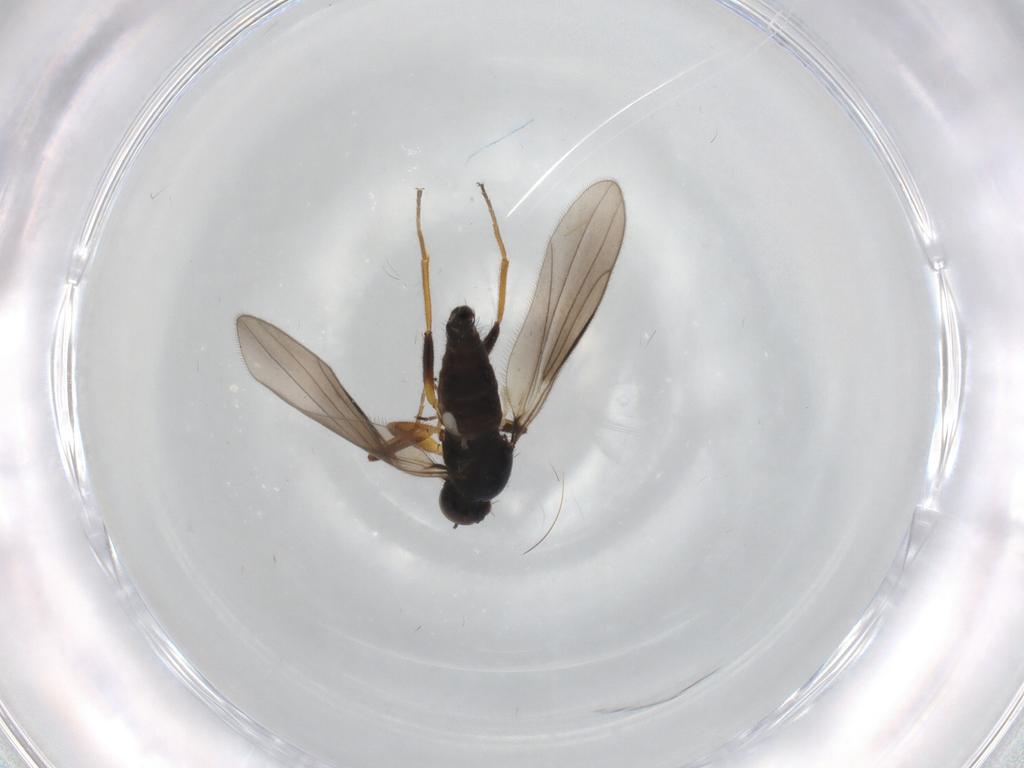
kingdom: Animalia
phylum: Arthropoda
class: Insecta
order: Diptera
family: Hybotidae
